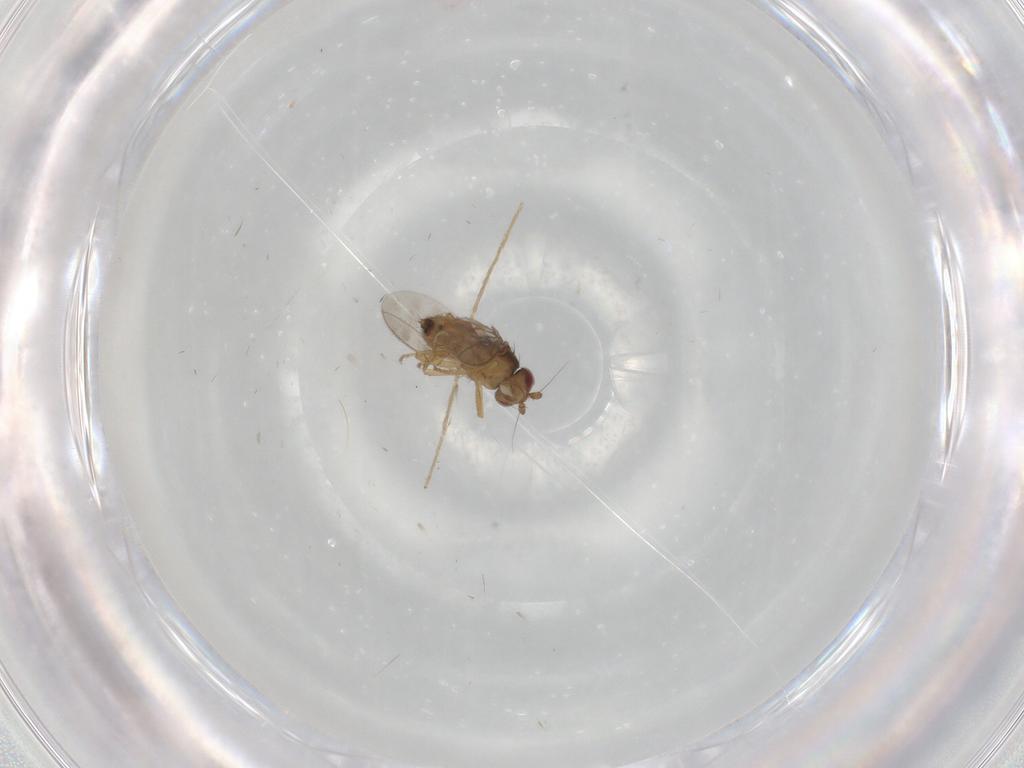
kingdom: Animalia
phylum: Arthropoda
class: Insecta
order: Diptera
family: Sphaeroceridae
